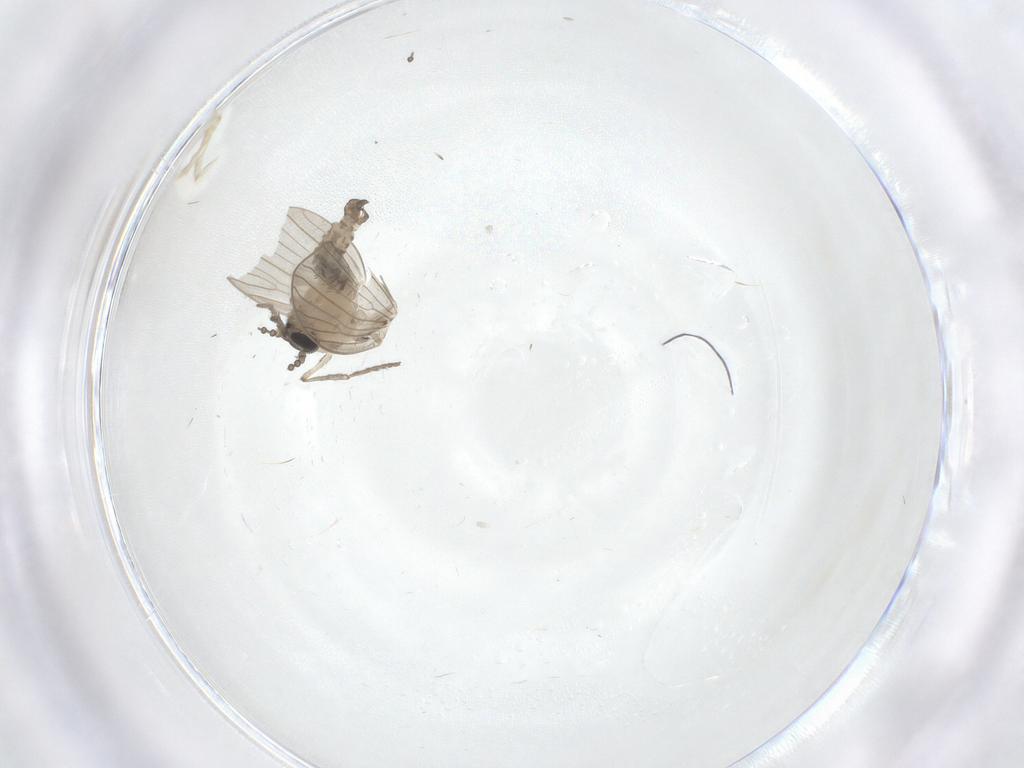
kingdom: Animalia
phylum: Arthropoda
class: Insecta
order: Diptera
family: Psychodidae
